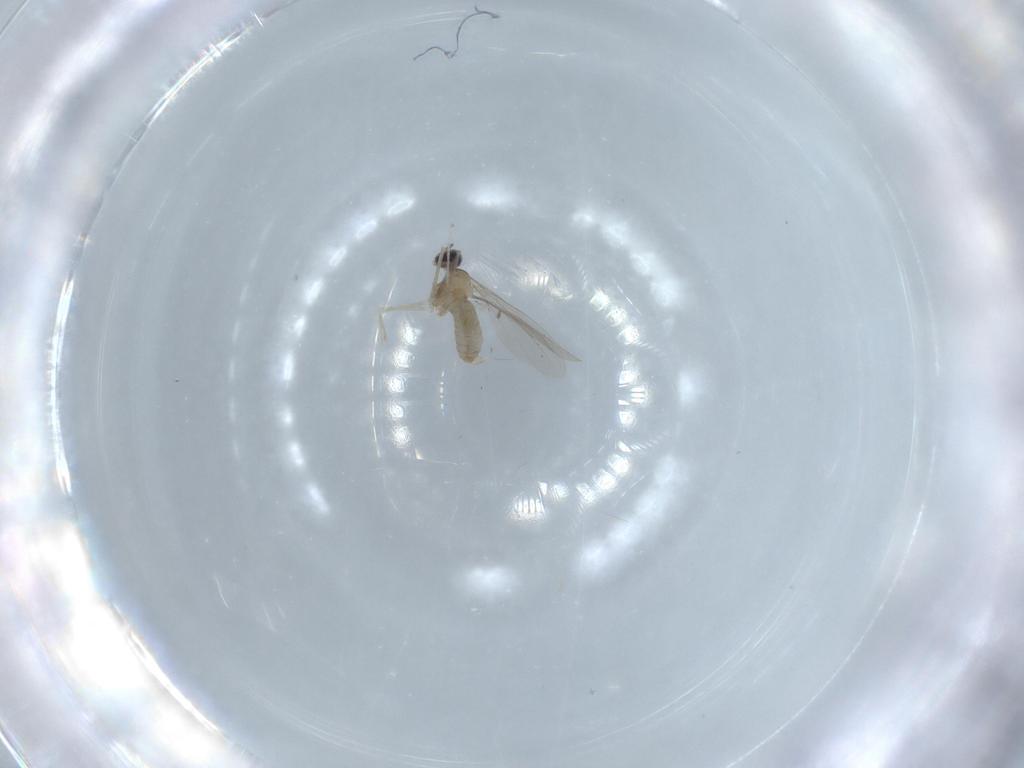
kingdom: Animalia
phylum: Arthropoda
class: Insecta
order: Diptera
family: Cecidomyiidae
